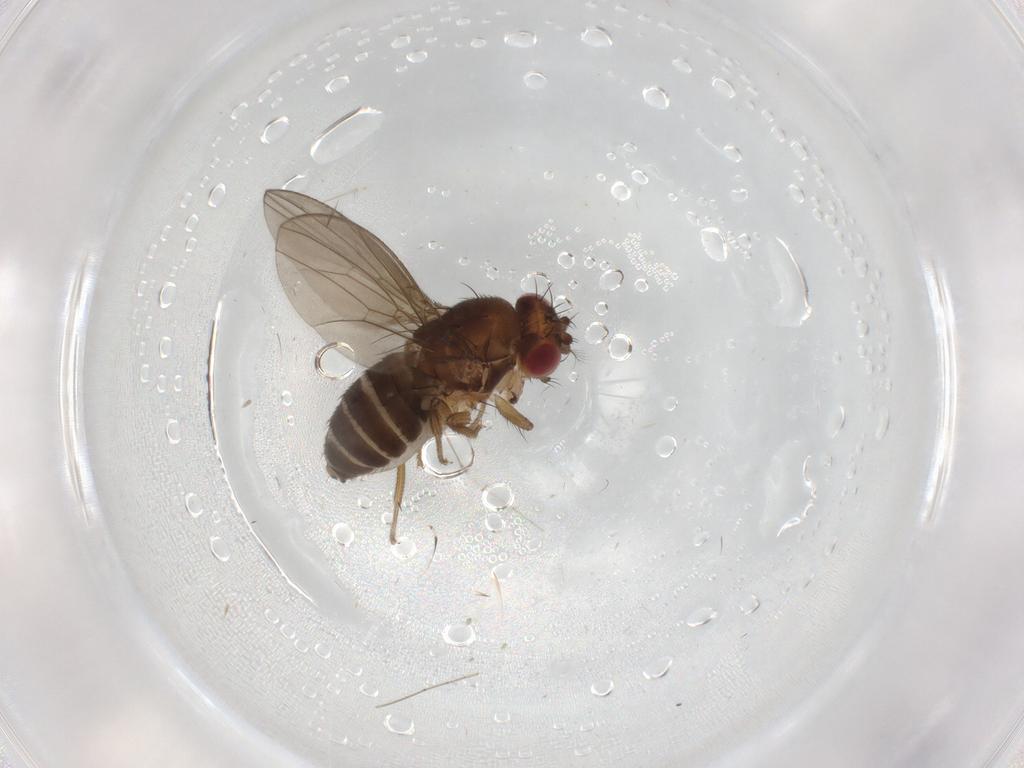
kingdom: Animalia
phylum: Arthropoda
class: Insecta
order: Diptera
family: Drosophilidae
